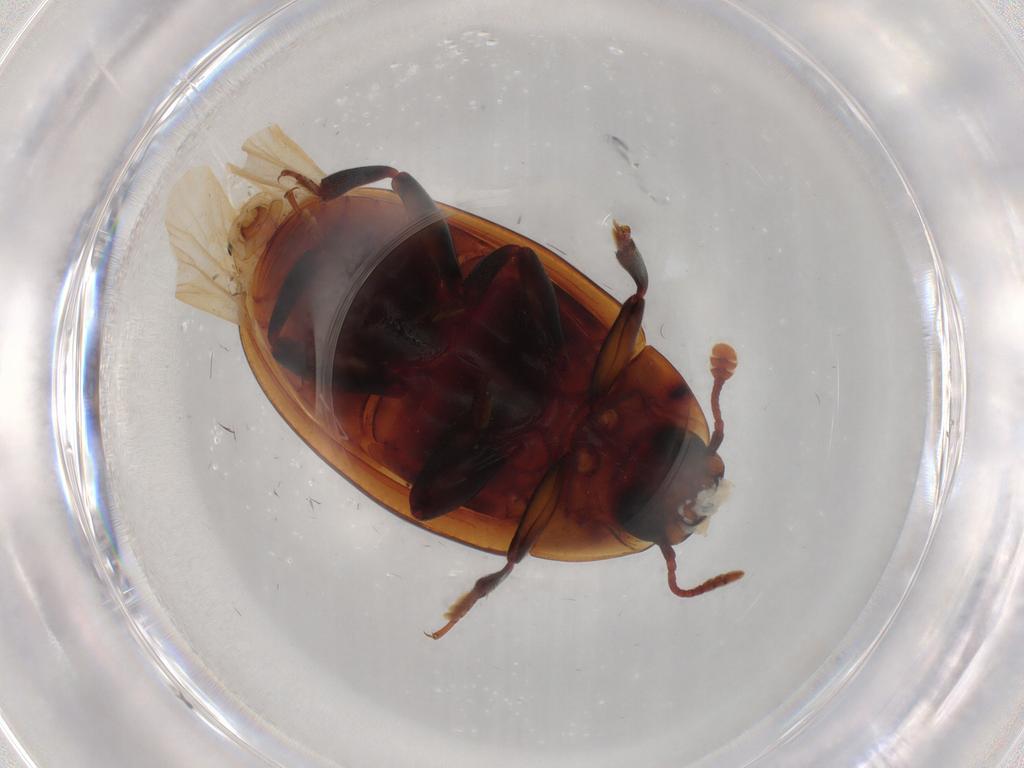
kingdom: Animalia
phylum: Arthropoda
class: Insecta
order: Coleoptera
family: Zopheridae
